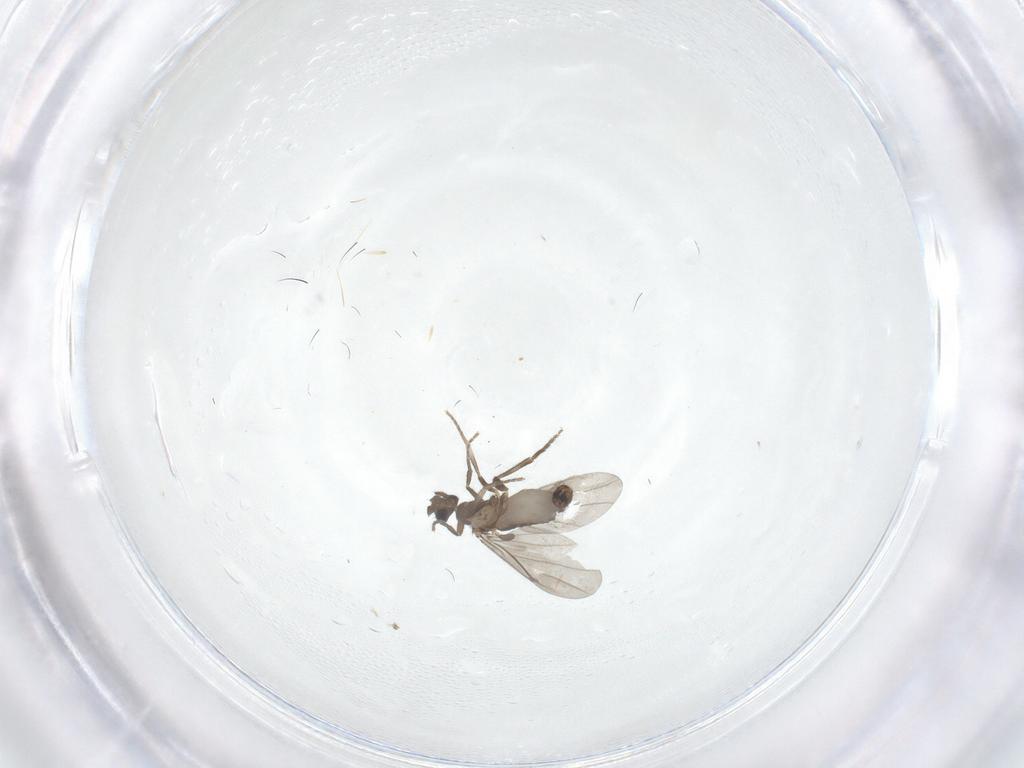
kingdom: Animalia
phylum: Arthropoda
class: Insecta
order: Diptera
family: Phoridae
